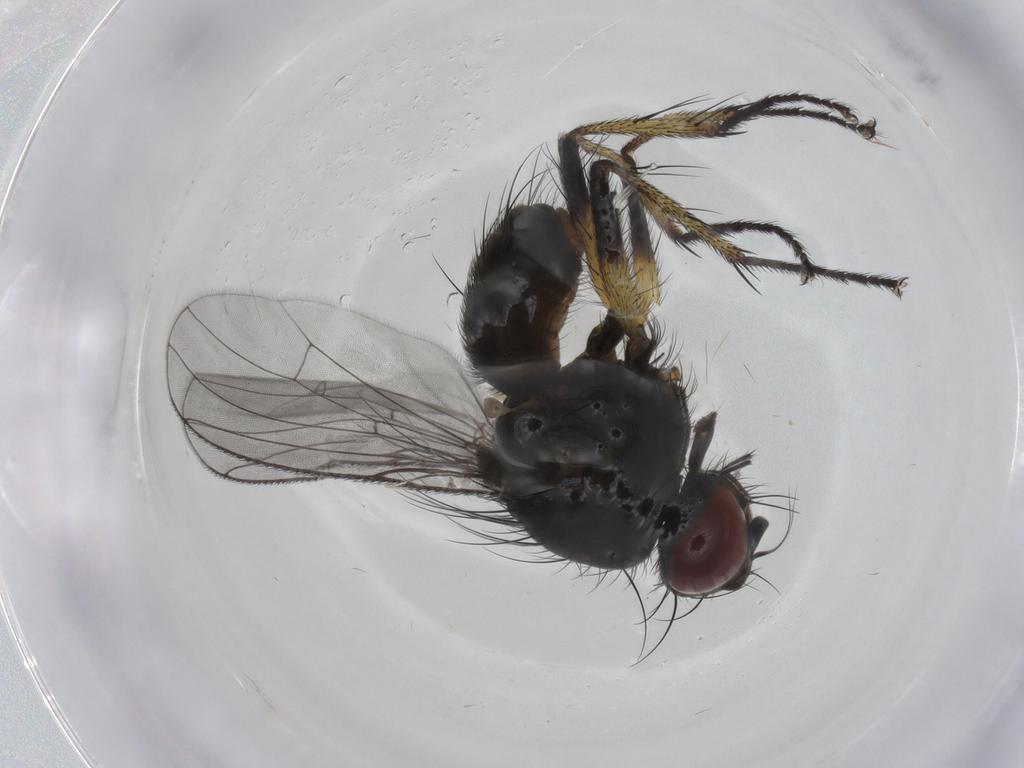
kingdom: Animalia
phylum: Arthropoda
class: Insecta
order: Diptera
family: Muscidae
